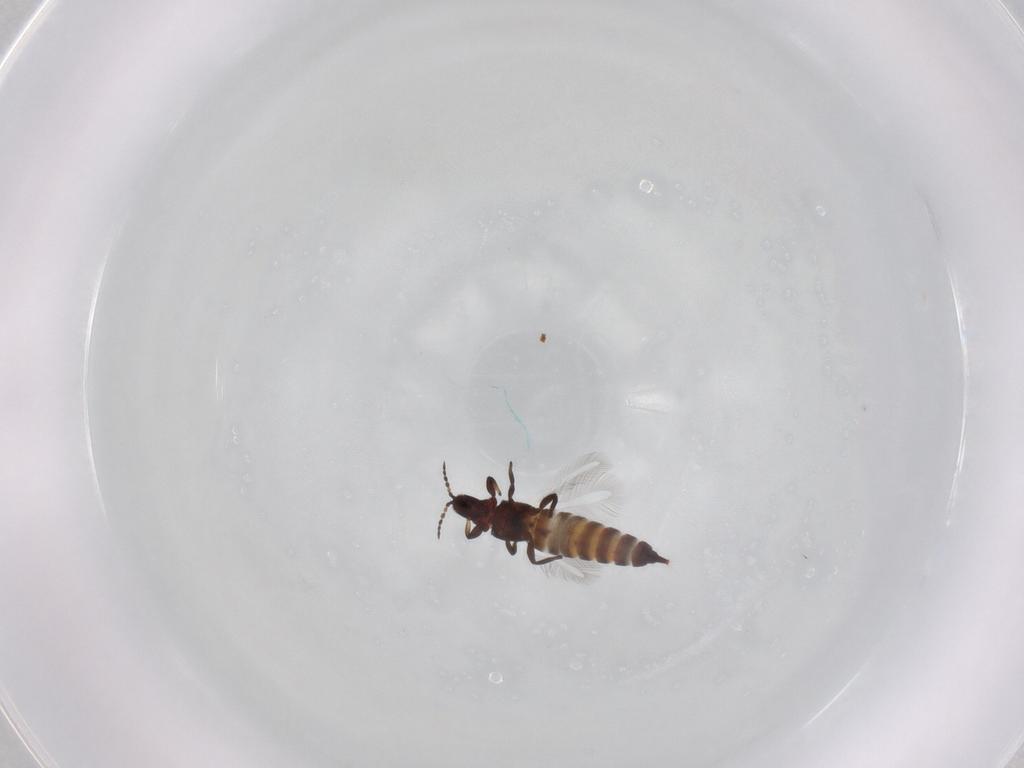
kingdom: Animalia
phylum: Arthropoda
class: Insecta
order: Thysanoptera
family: Phlaeothripidae
